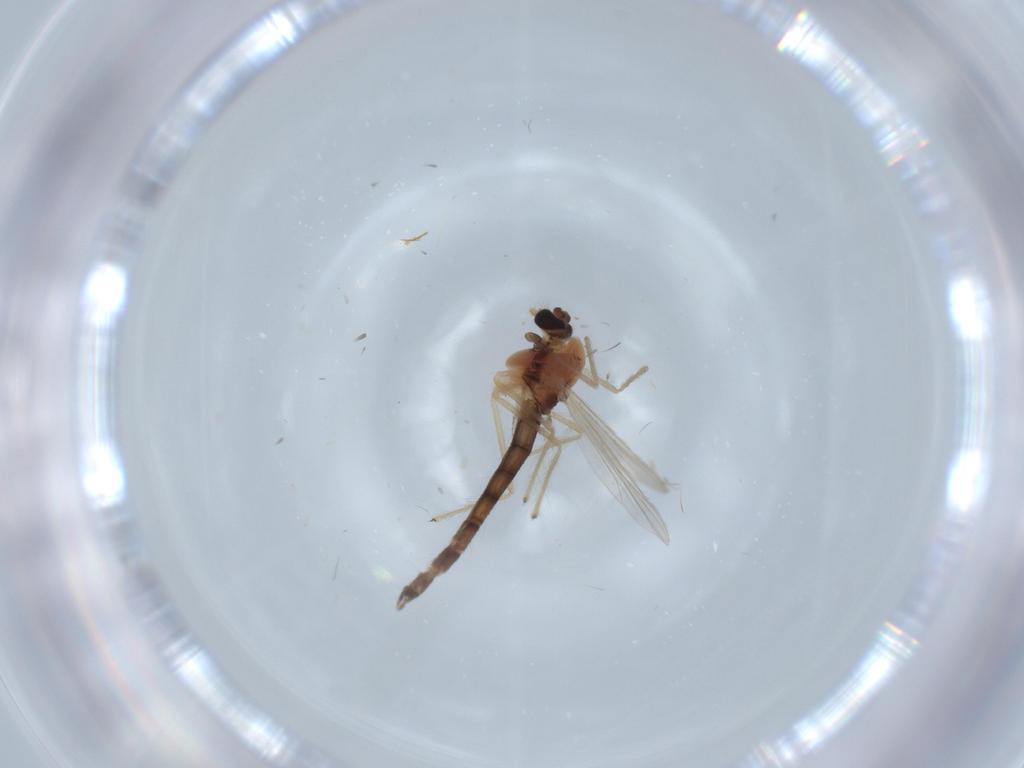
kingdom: Animalia
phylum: Arthropoda
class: Insecta
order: Diptera
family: Chironomidae
